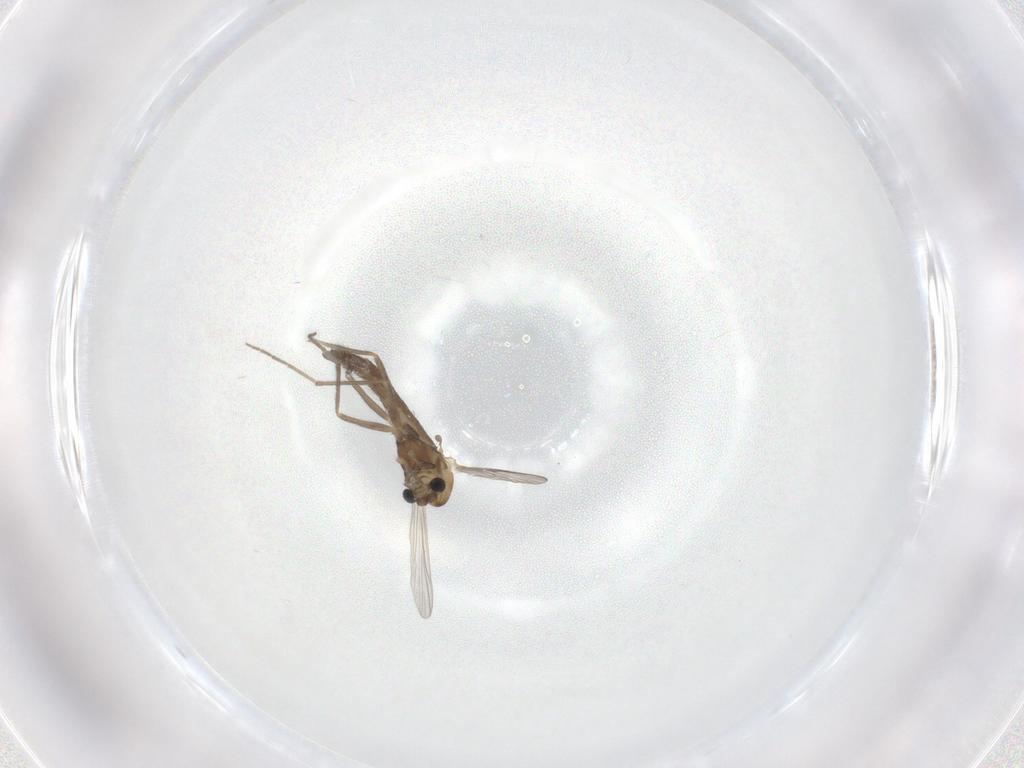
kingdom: Animalia
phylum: Arthropoda
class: Insecta
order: Diptera
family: Chironomidae
